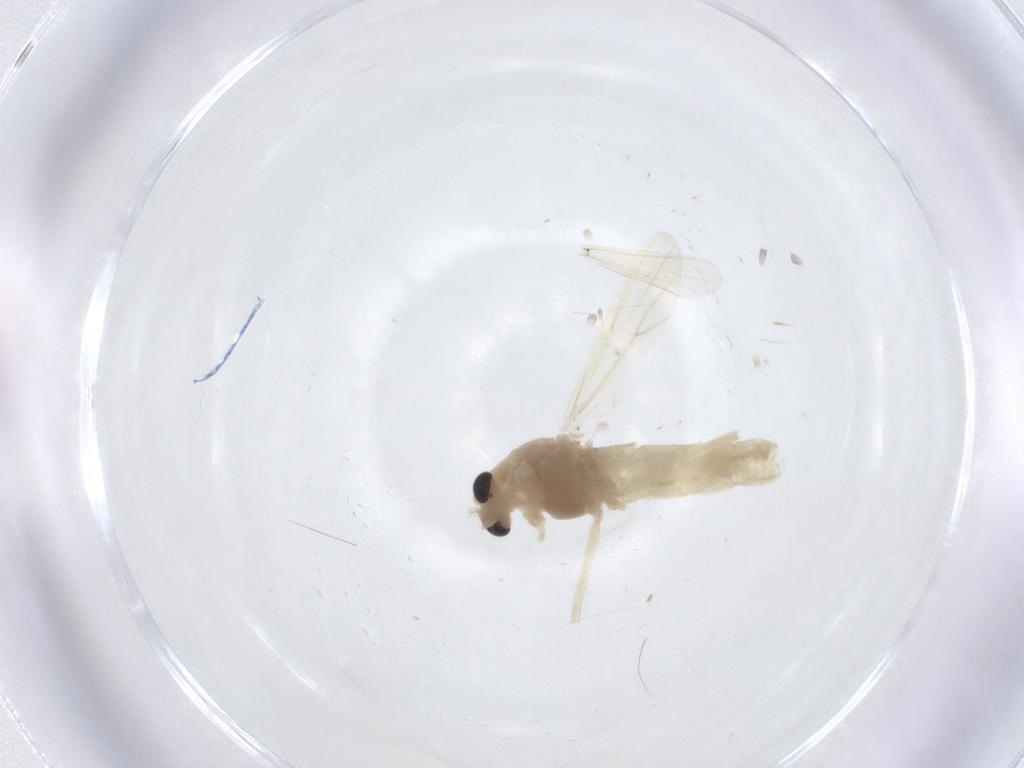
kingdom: Animalia
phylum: Arthropoda
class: Insecta
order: Diptera
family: Chironomidae
